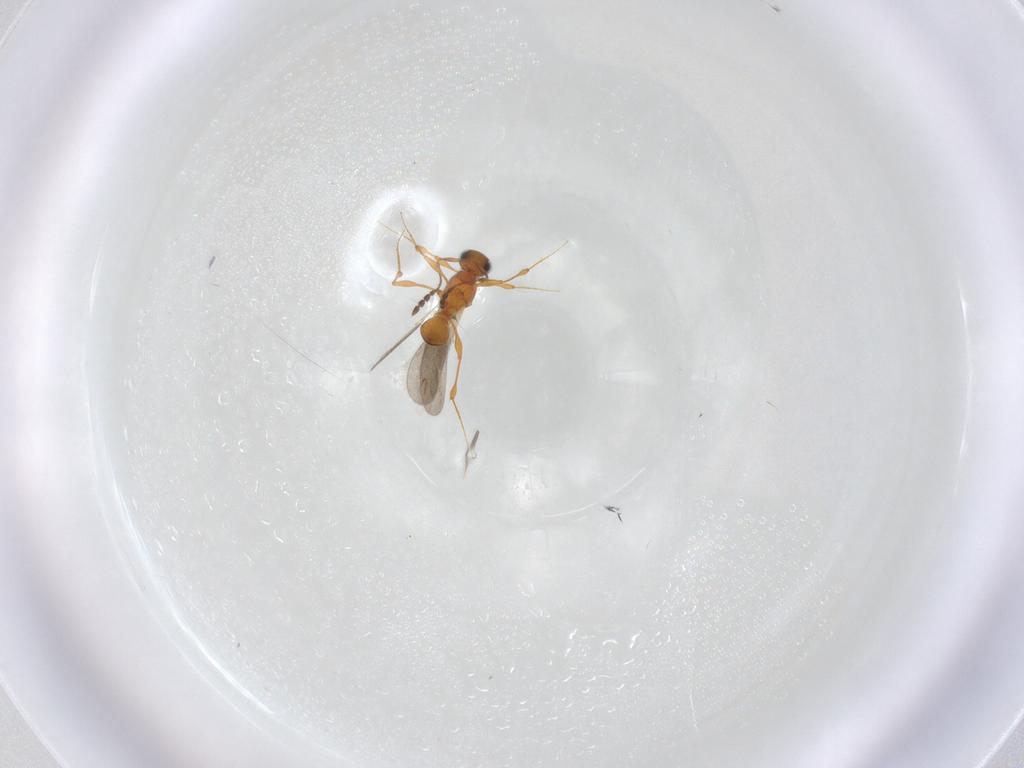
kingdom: Animalia
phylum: Arthropoda
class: Insecta
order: Hymenoptera
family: Platygastridae
